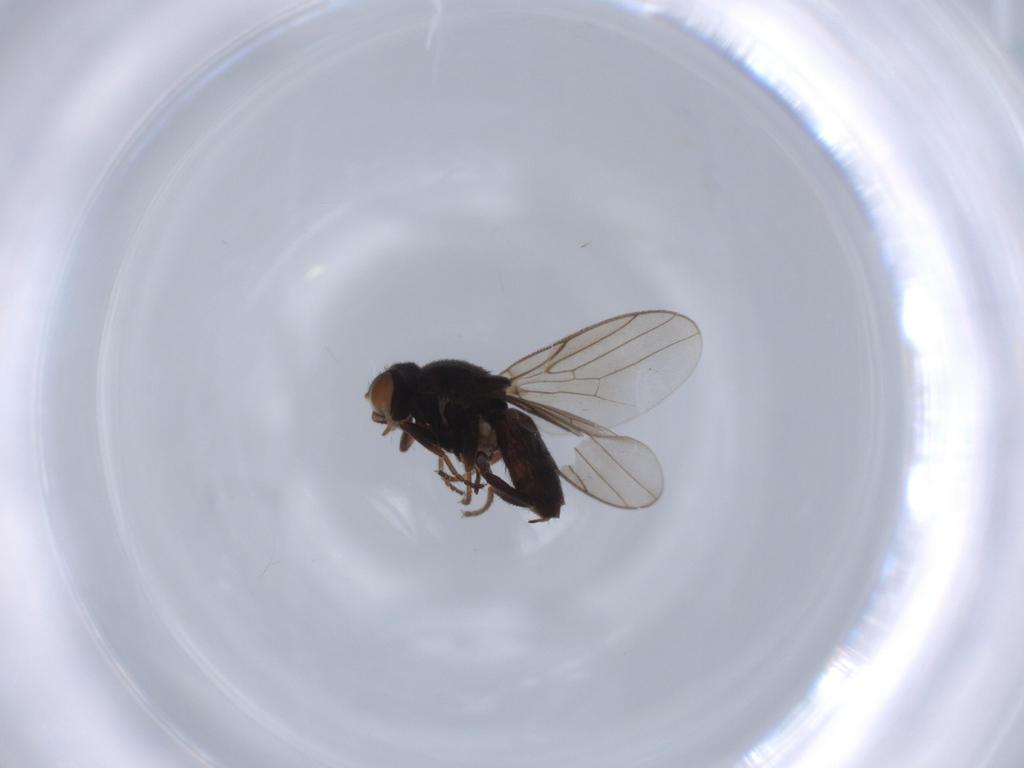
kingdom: Animalia
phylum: Arthropoda
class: Insecta
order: Diptera
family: Chloropidae
